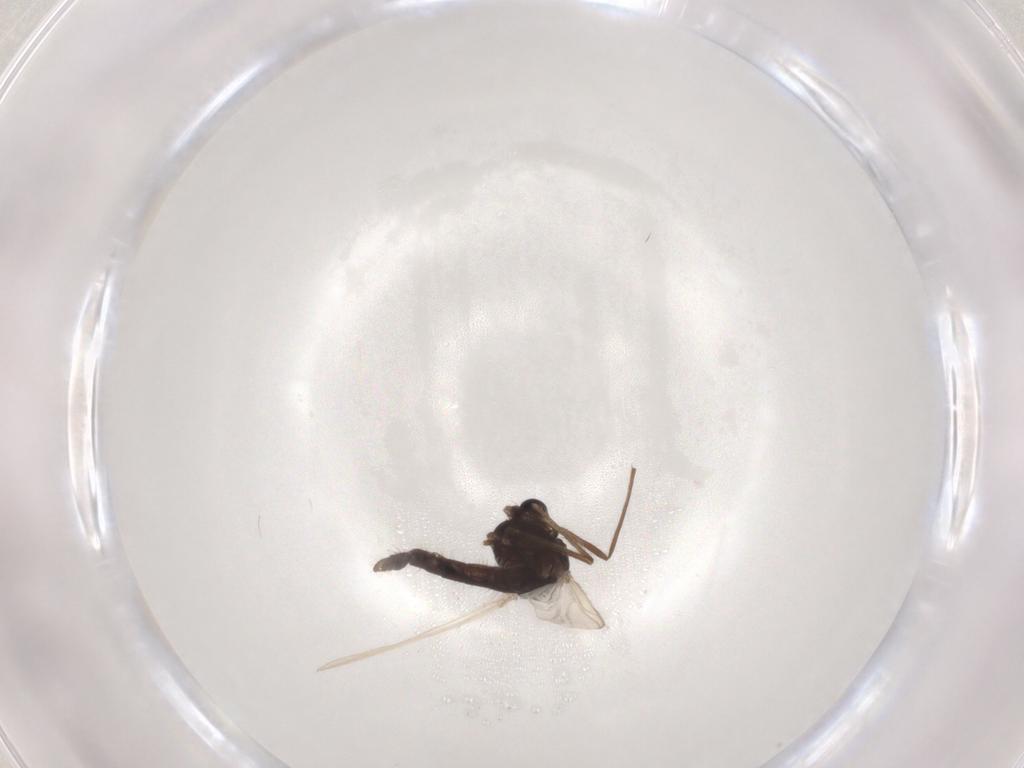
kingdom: Animalia
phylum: Arthropoda
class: Insecta
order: Diptera
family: Chironomidae
